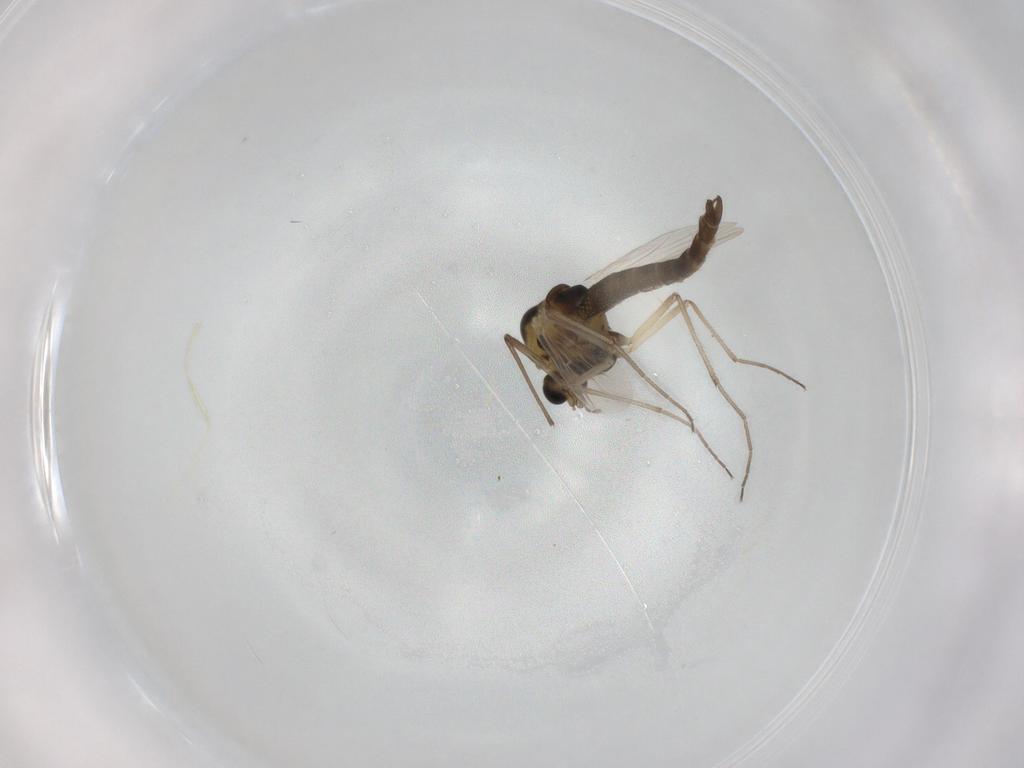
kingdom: Animalia
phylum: Arthropoda
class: Insecta
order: Diptera
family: Chironomidae
